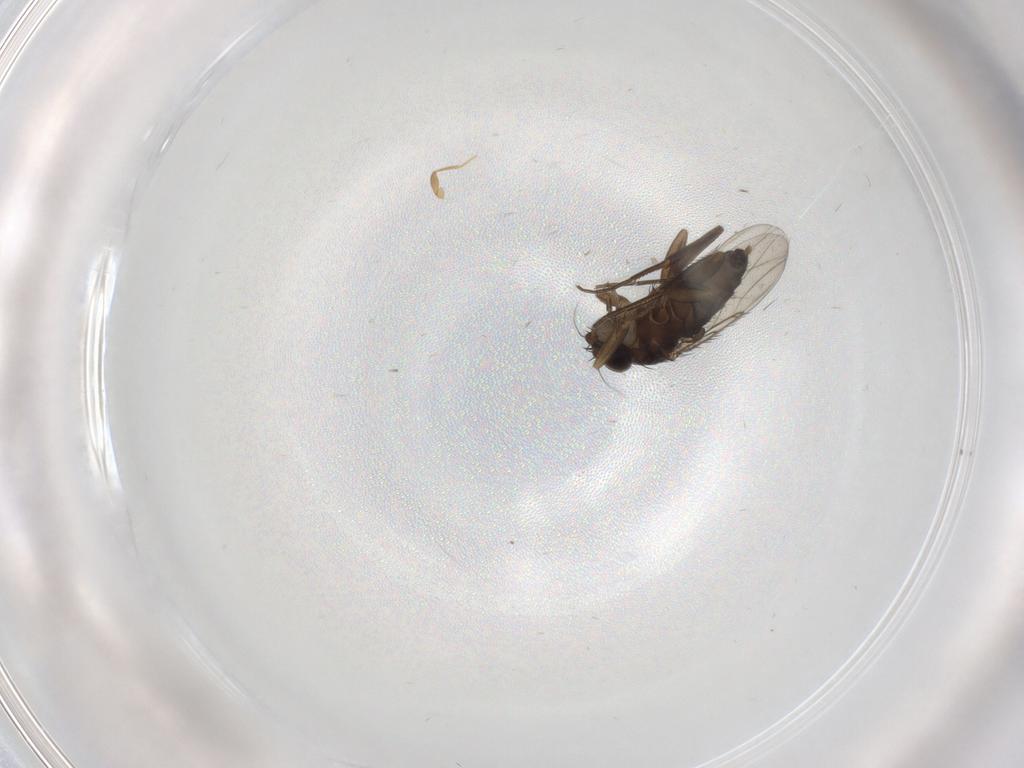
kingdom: Animalia
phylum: Arthropoda
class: Insecta
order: Diptera
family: Phoridae
